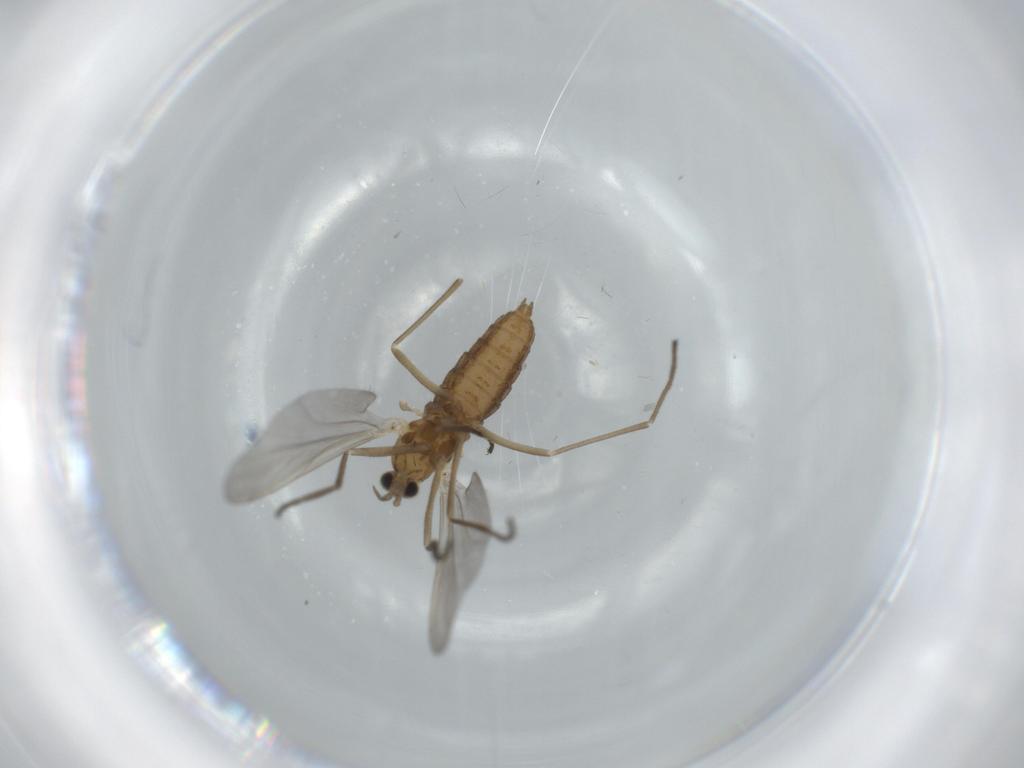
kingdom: Animalia
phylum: Arthropoda
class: Insecta
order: Diptera
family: Cecidomyiidae
